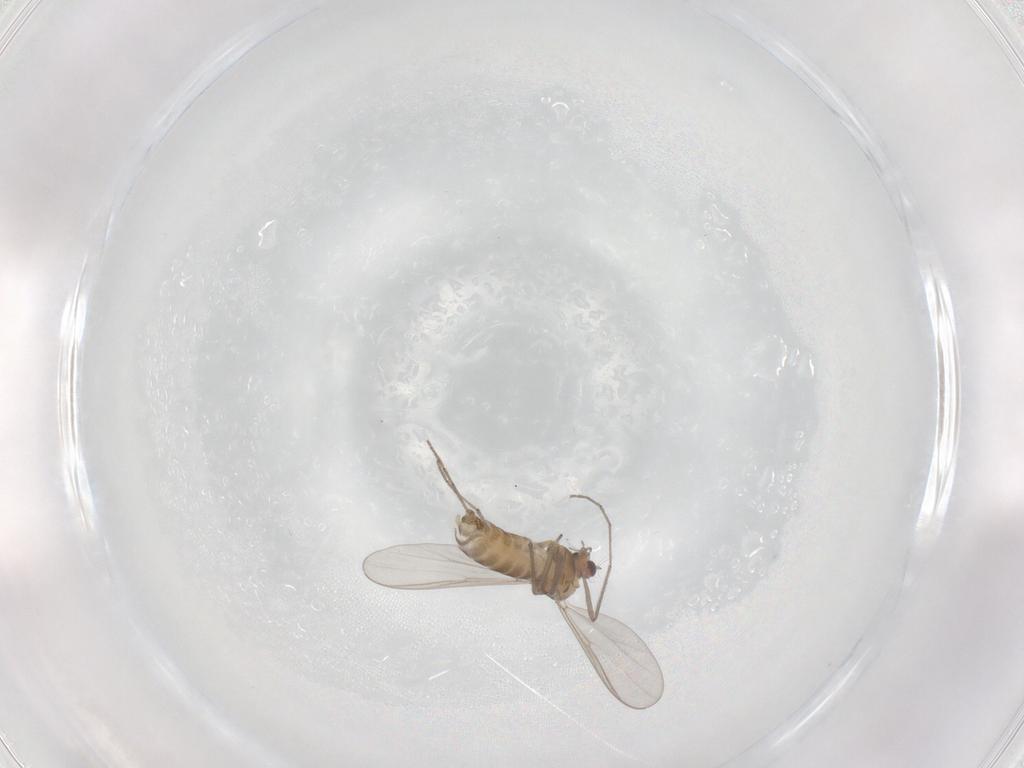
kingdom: Animalia
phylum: Arthropoda
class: Insecta
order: Diptera
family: Chironomidae
